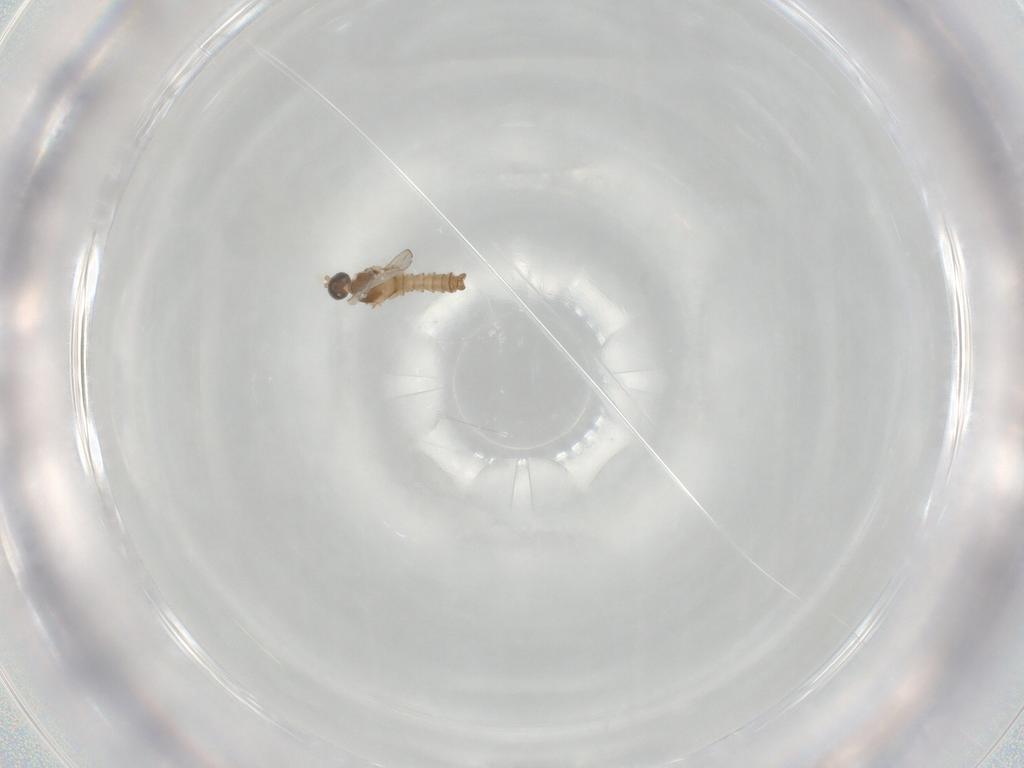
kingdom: Animalia
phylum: Arthropoda
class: Insecta
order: Diptera
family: Cecidomyiidae
